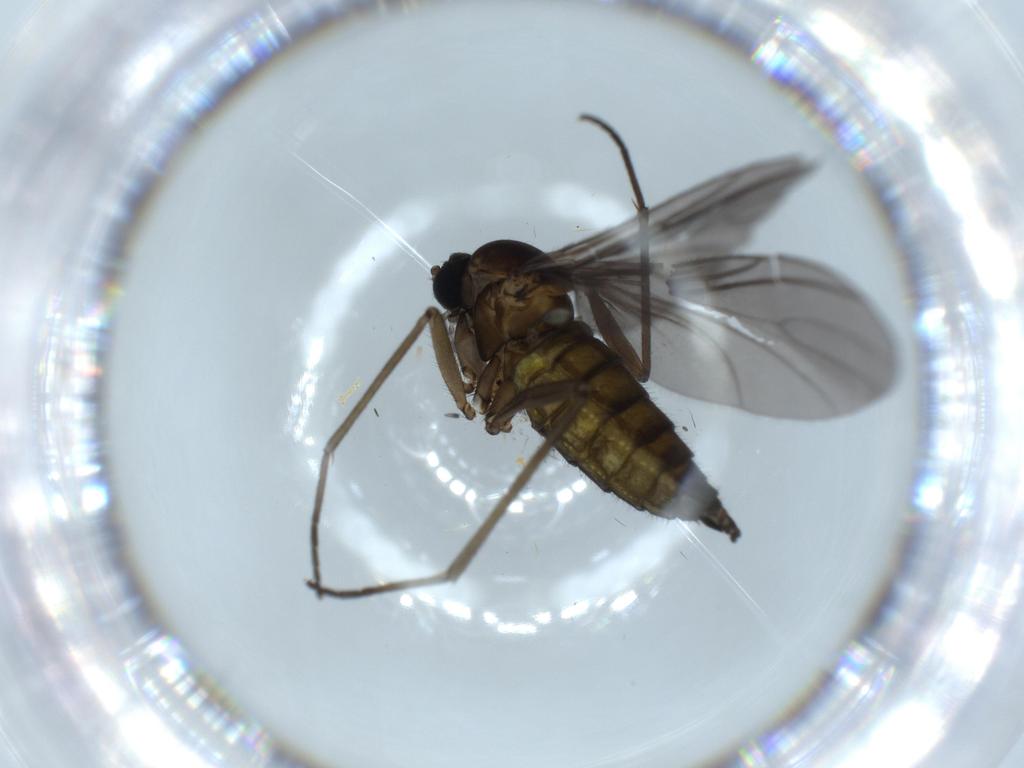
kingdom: Animalia
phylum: Arthropoda
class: Insecta
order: Diptera
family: Sciaridae
